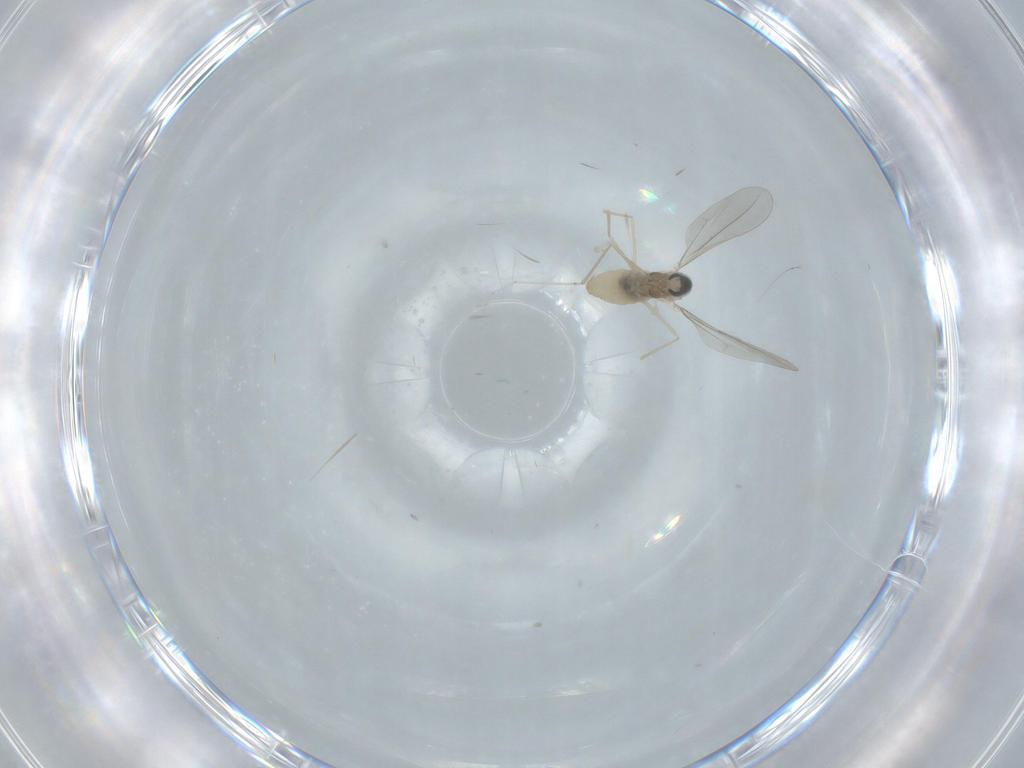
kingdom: Animalia
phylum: Arthropoda
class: Insecta
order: Diptera
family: Cecidomyiidae
